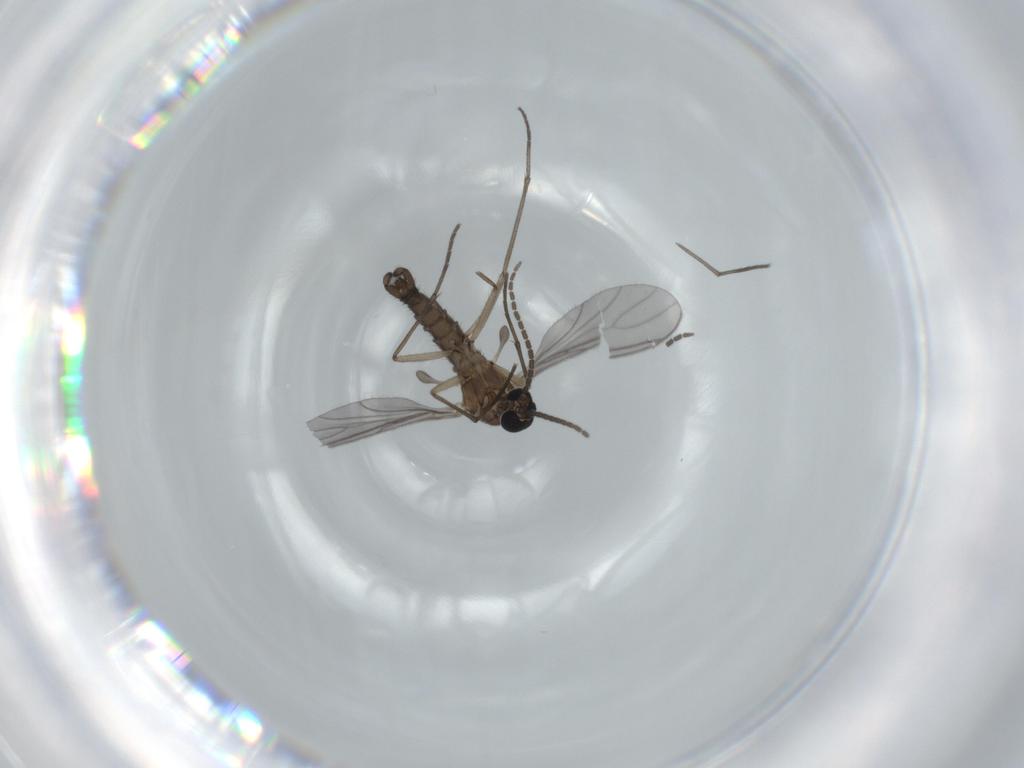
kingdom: Animalia
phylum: Arthropoda
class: Insecta
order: Diptera
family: Sciaridae
